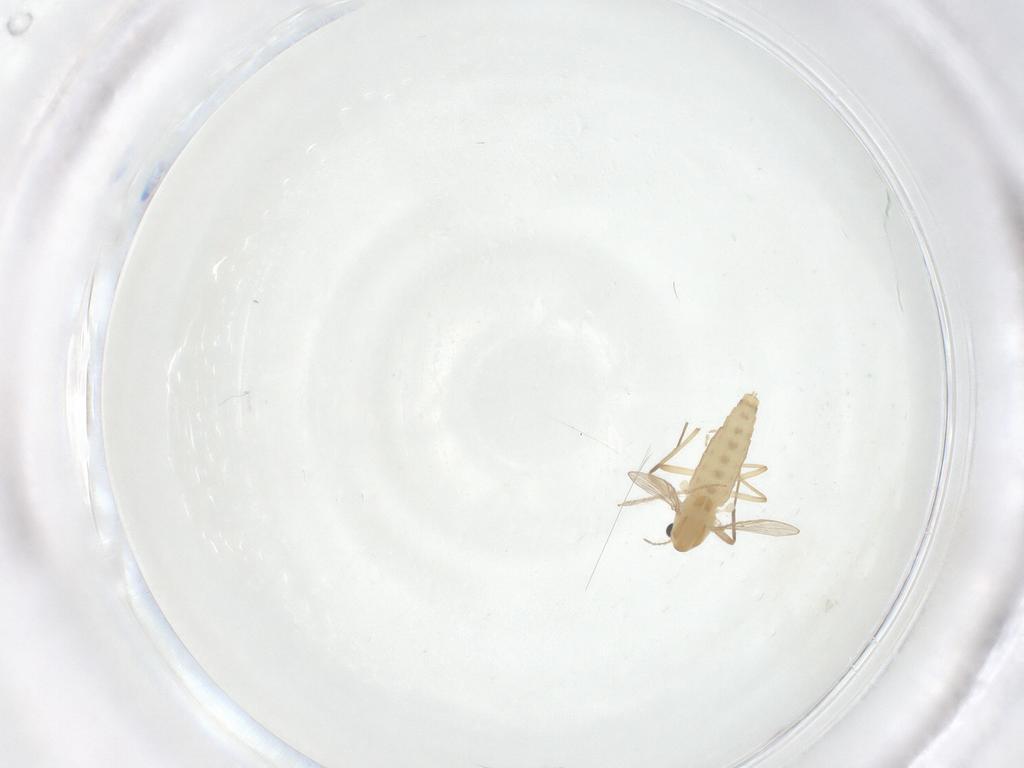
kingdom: Animalia
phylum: Arthropoda
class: Insecta
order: Diptera
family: Chironomidae
